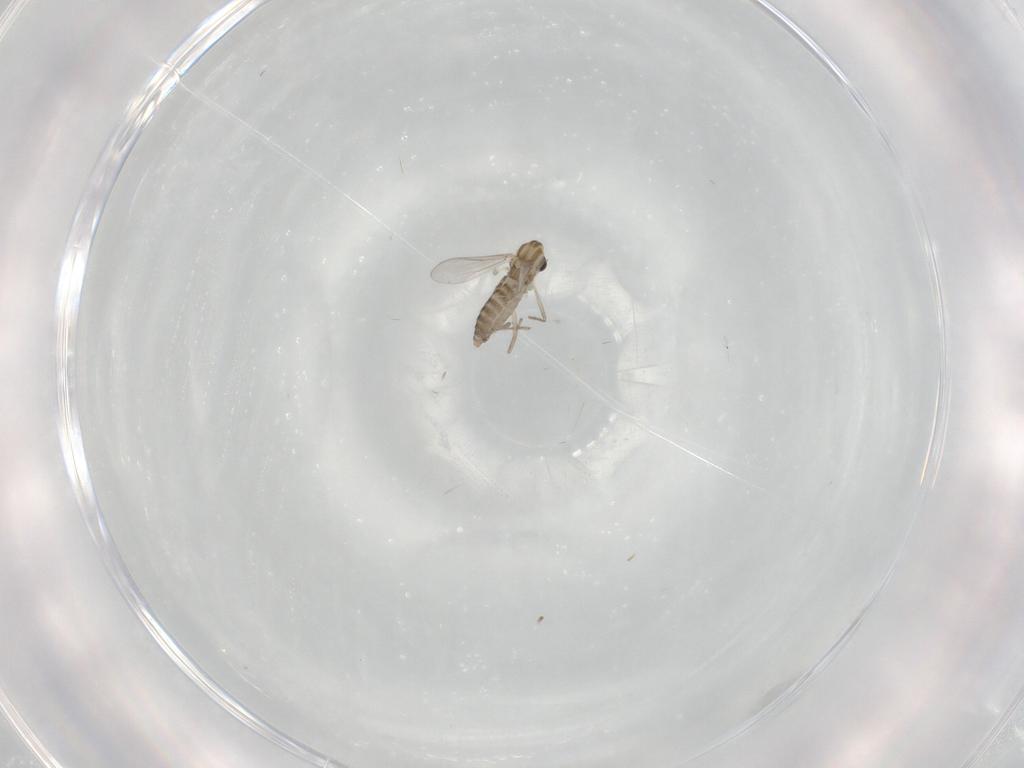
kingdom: Animalia
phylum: Arthropoda
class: Insecta
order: Diptera
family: Chironomidae
